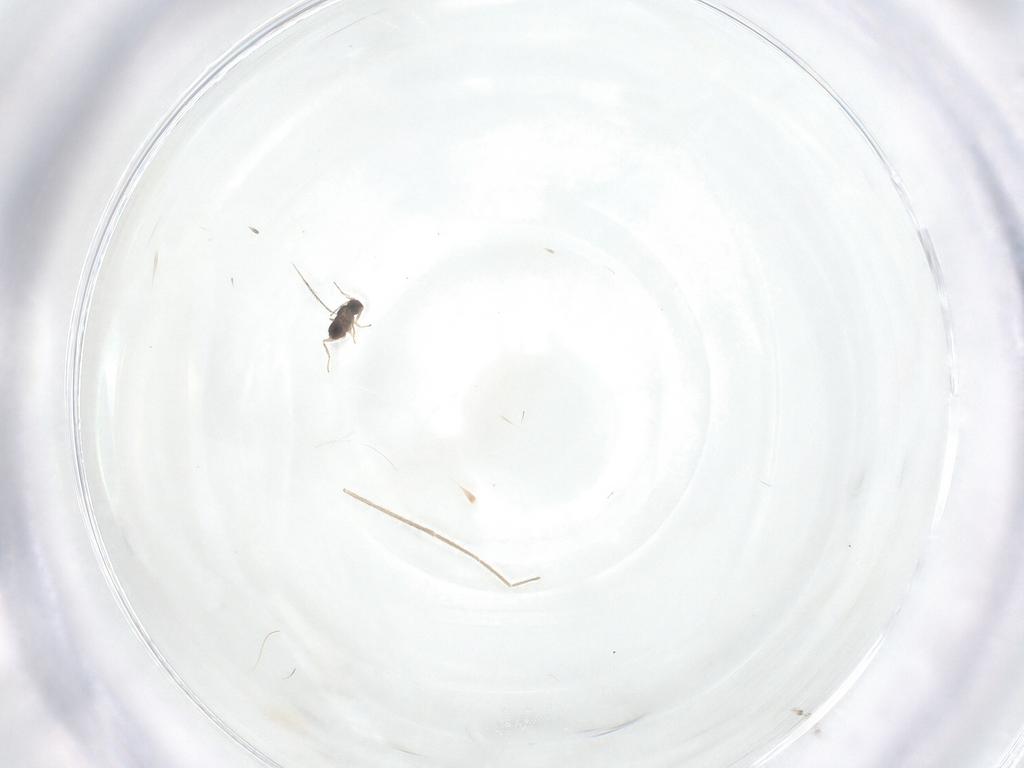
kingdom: Animalia
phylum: Arthropoda
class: Insecta
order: Diptera
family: Chironomidae
